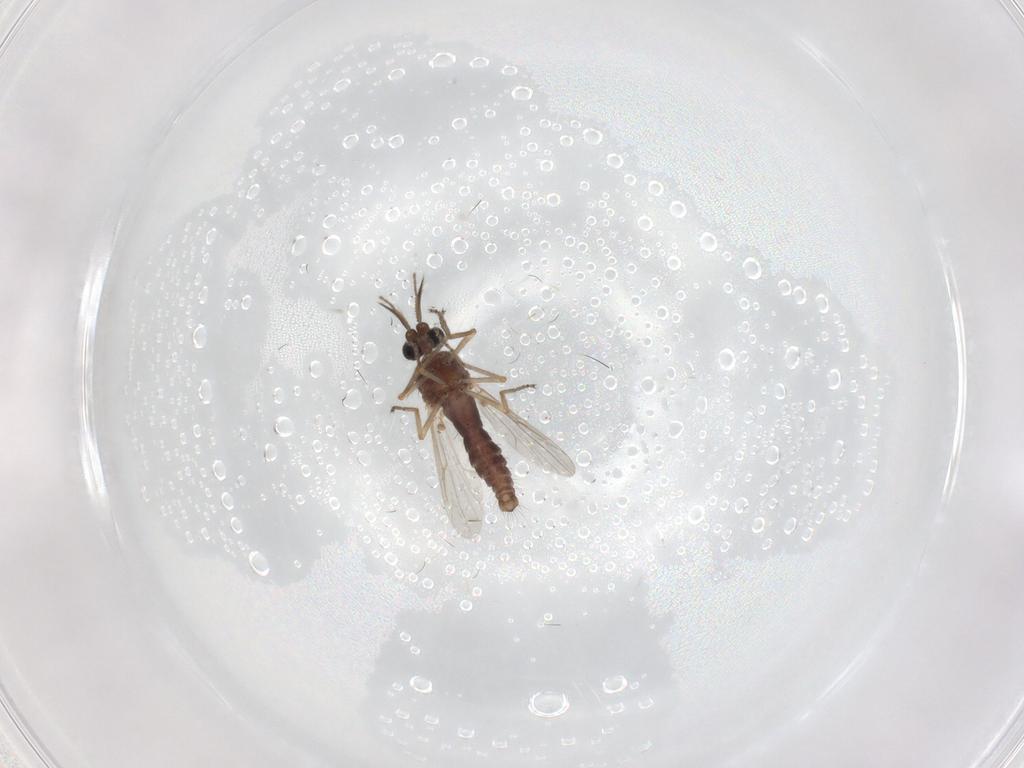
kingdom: Animalia
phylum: Arthropoda
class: Insecta
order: Diptera
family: Ceratopogonidae
